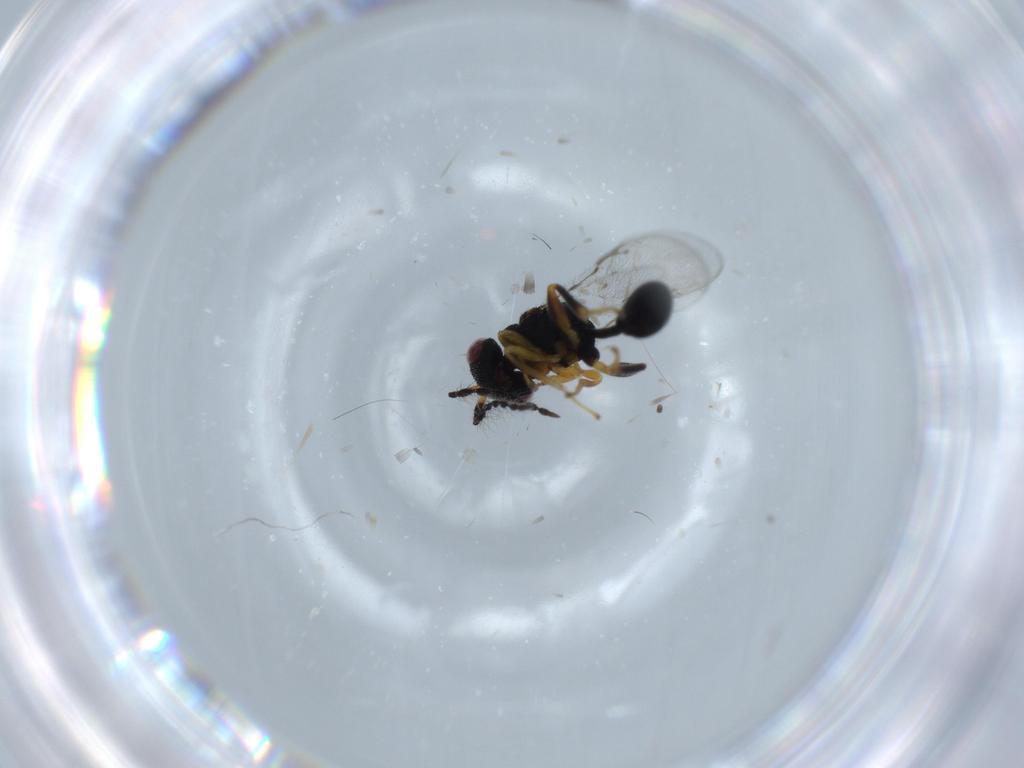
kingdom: Animalia
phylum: Arthropoda
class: Insecta
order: Hymenoptera
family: Eurytomidae
